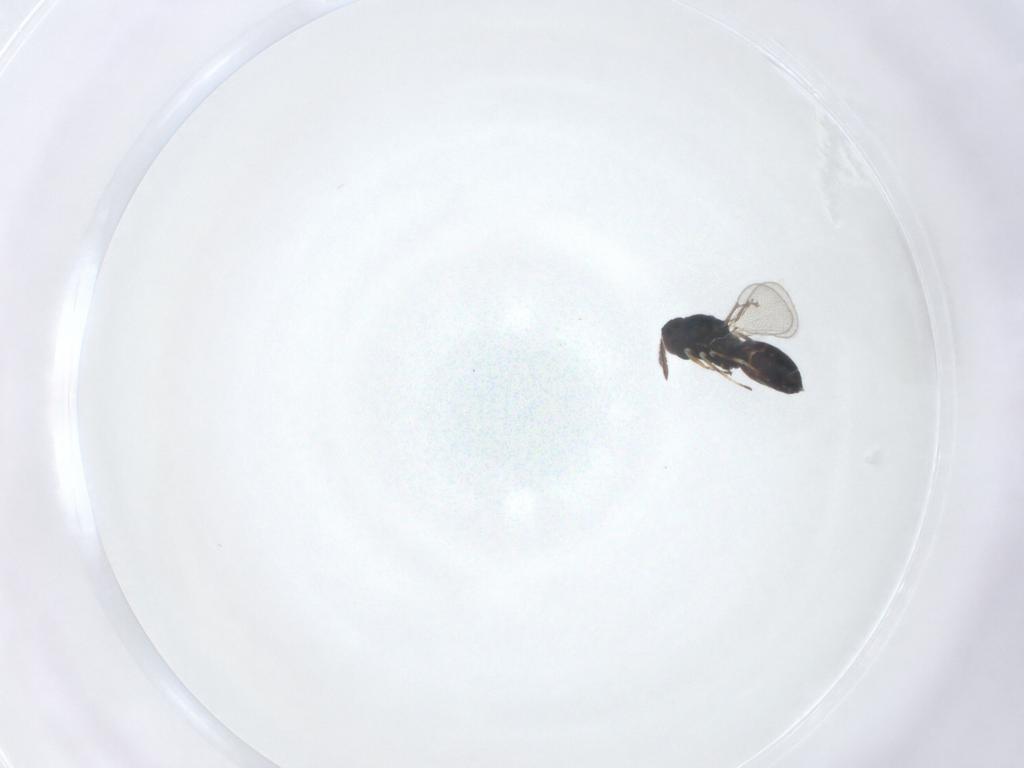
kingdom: Animalia
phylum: Arthropoda
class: Insecta
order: Hymenoptera
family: Eulophidae
